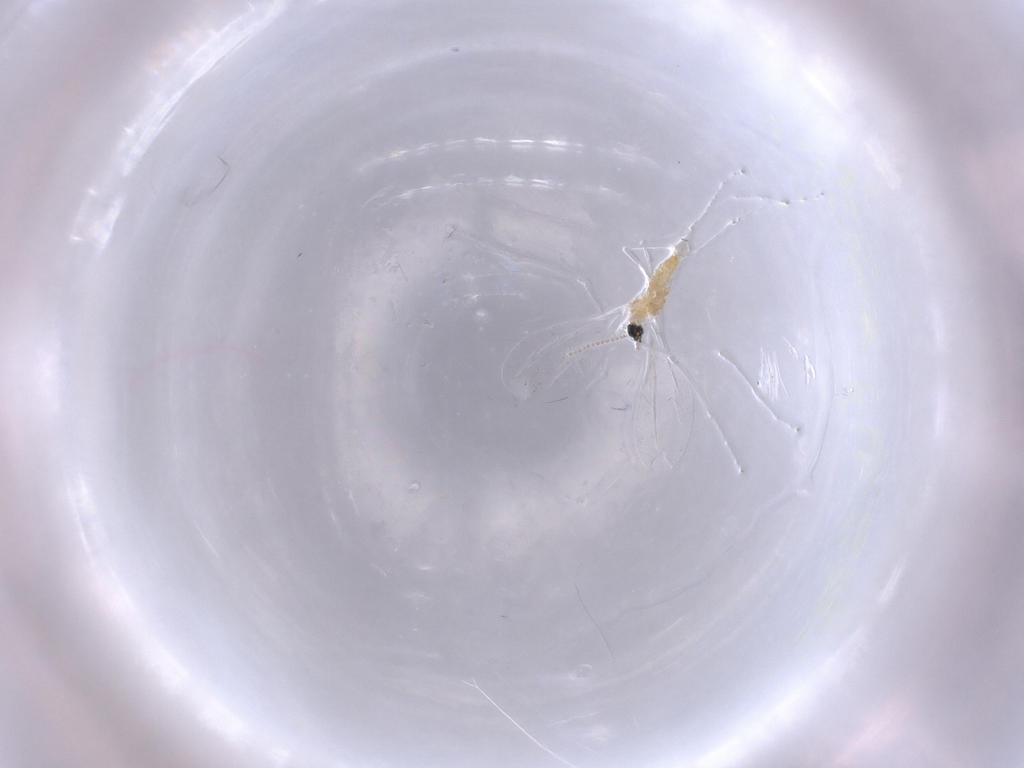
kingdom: Animalia
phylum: Arthropoda
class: Insecta
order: Diptera
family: Cecidomyiidae
